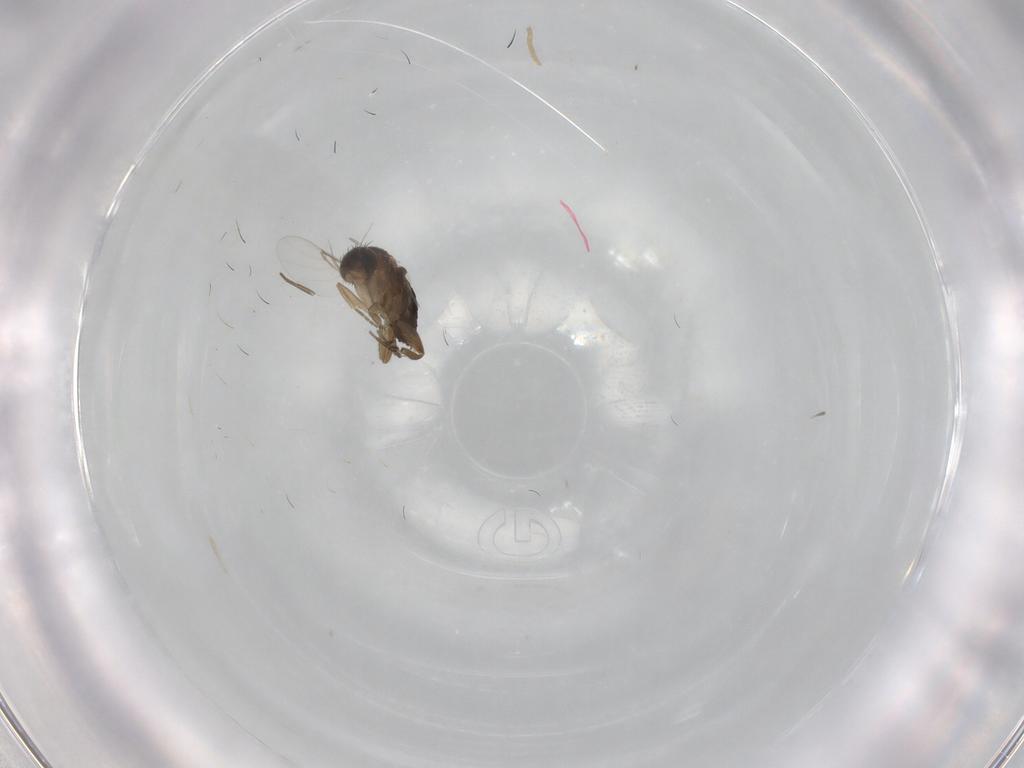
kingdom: Animalia
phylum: Arthropoda
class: Insecta
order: Diptera
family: Phoridae
